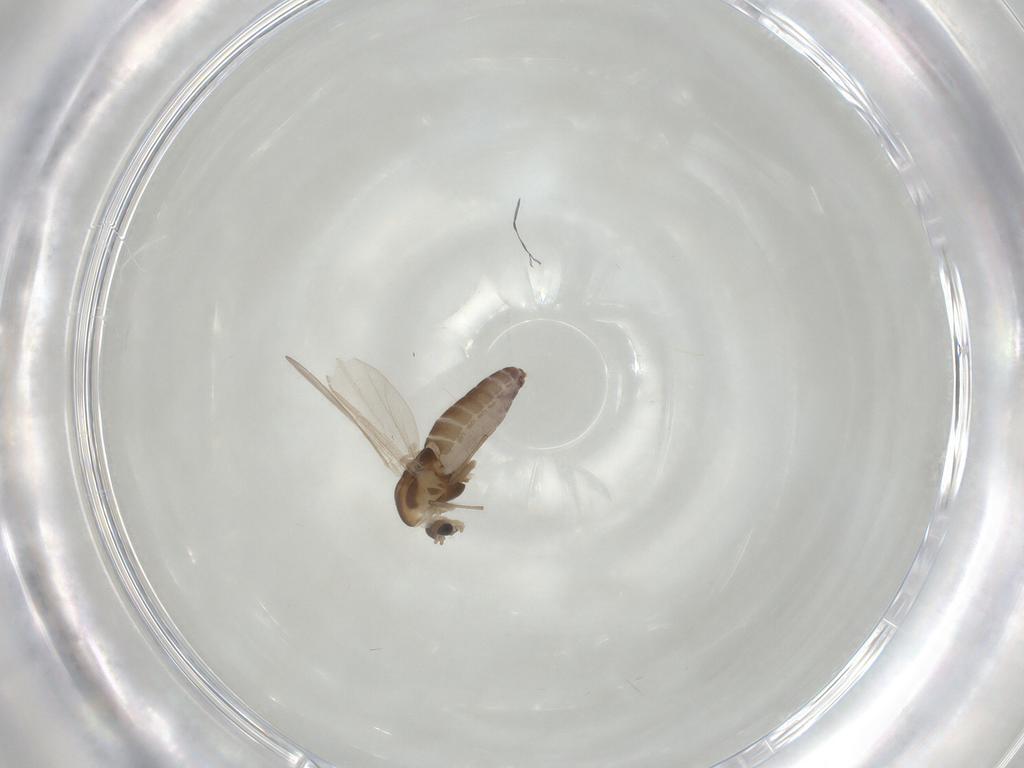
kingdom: Animalia
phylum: Arthropoda
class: Insecta
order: Diptera
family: Chironomidae
